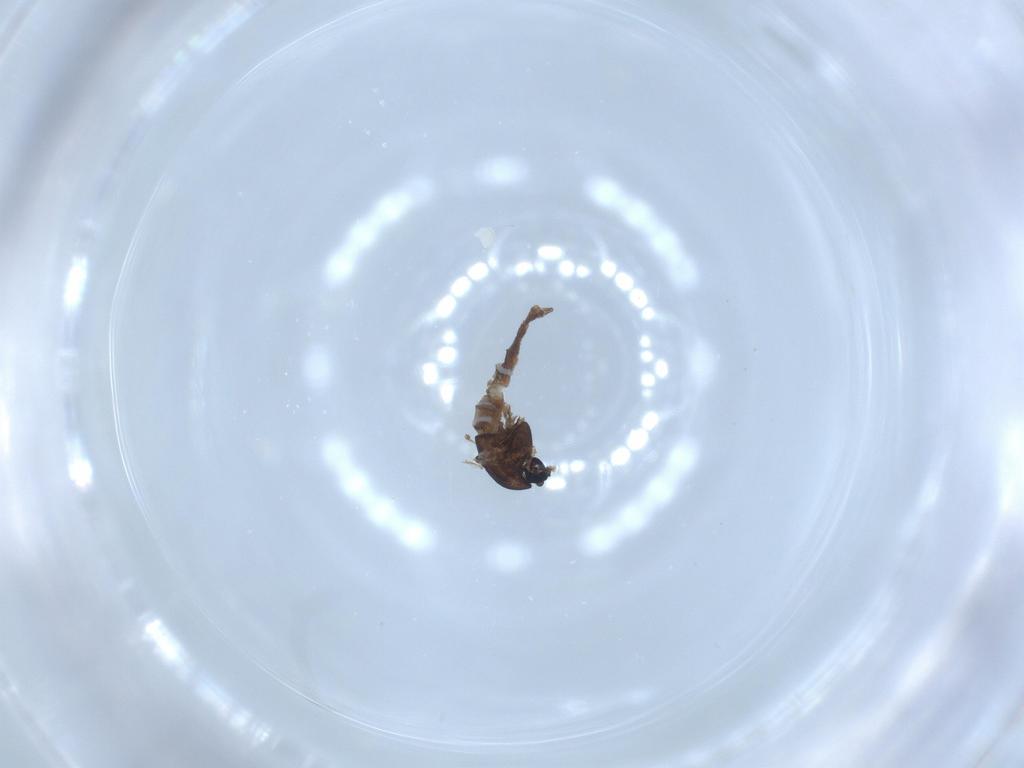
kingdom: Animalia
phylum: Arthropoda
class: Insecta
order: Diptera
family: Chironomidae
